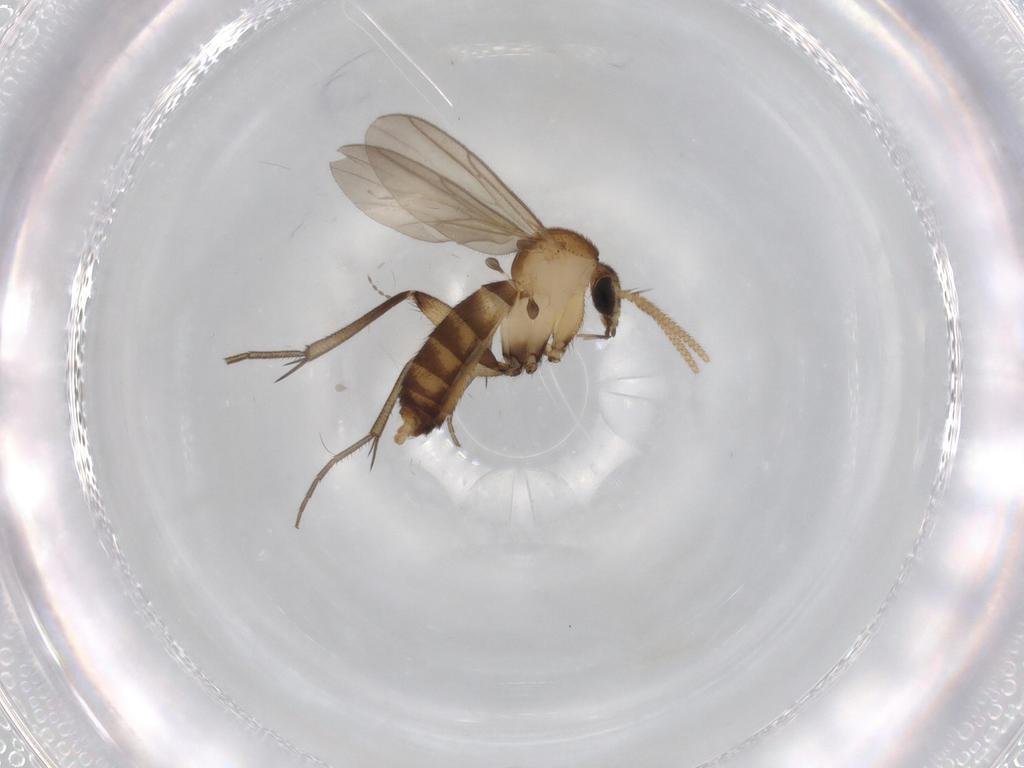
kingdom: Animalia
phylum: Arthropoda
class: Insecta
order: Diptera
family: Mycetophilidae
